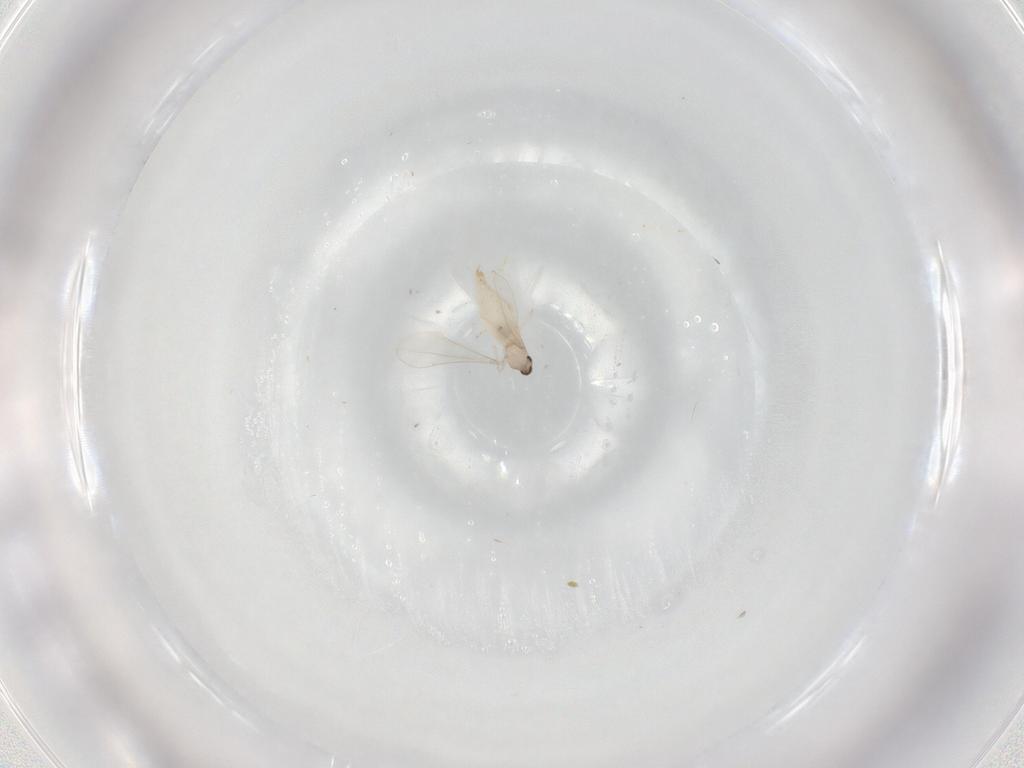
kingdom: Animalia
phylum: Arthropoda
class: Insecta
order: Diptera
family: Cecidomyiidae
